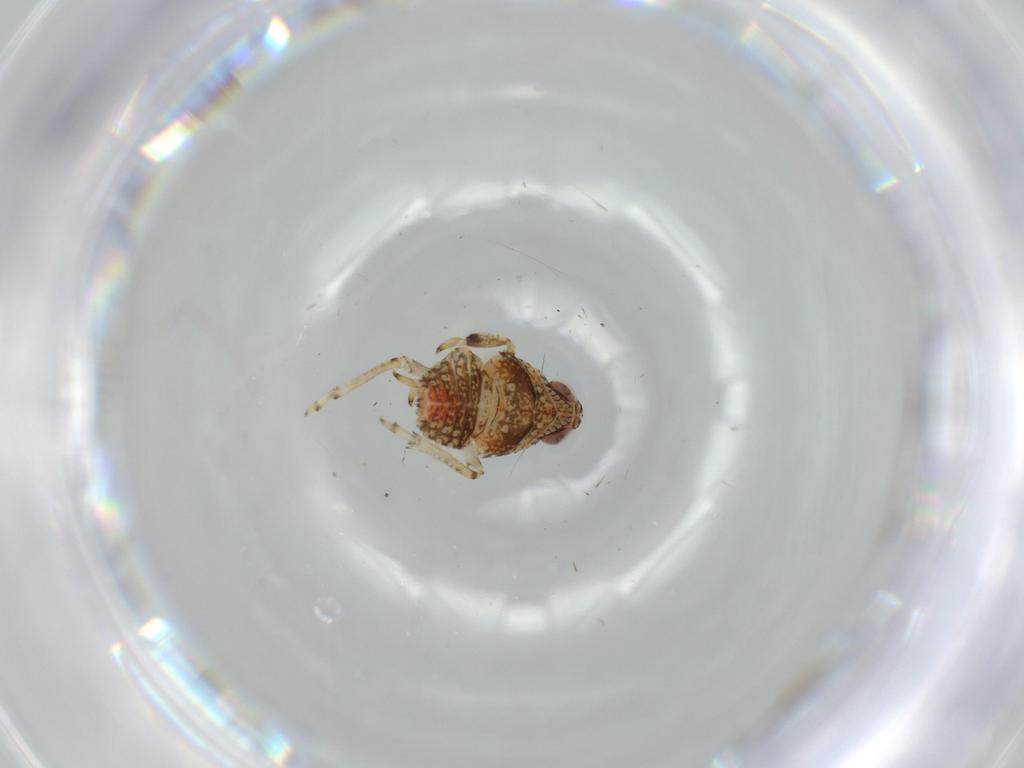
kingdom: Animalia
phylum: Arthropoda
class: Insecta
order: Hemiptera
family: Issidae
